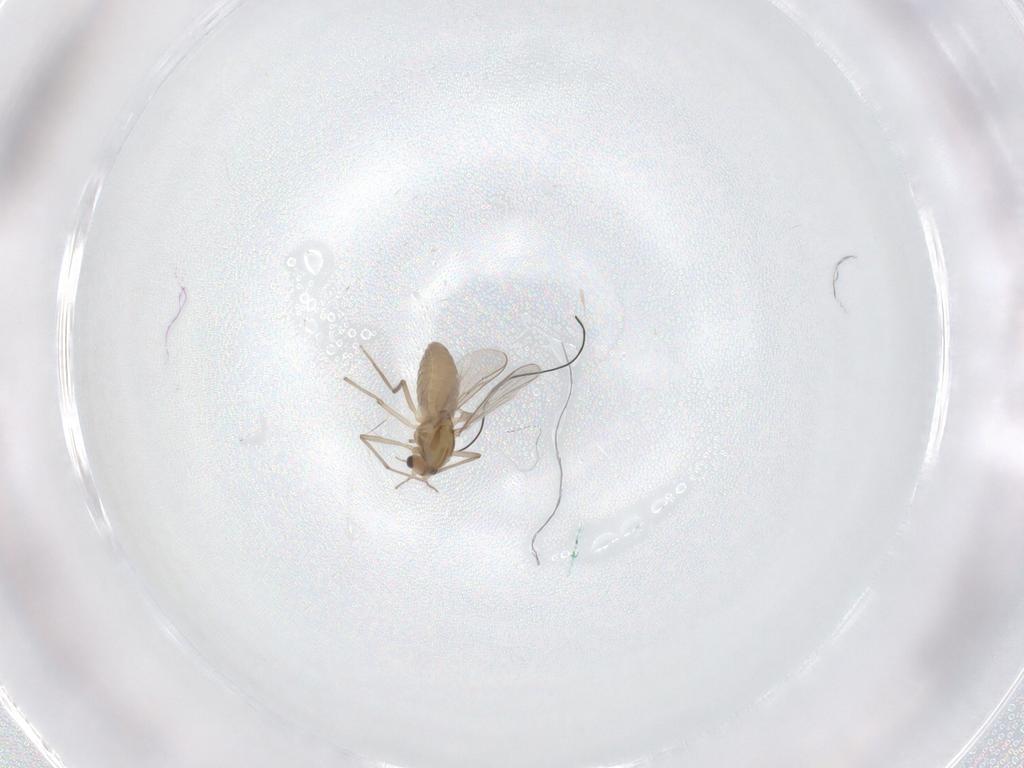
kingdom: Animalia
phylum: Arthropoda
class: Insecta
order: Diptera
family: Chironomidae
